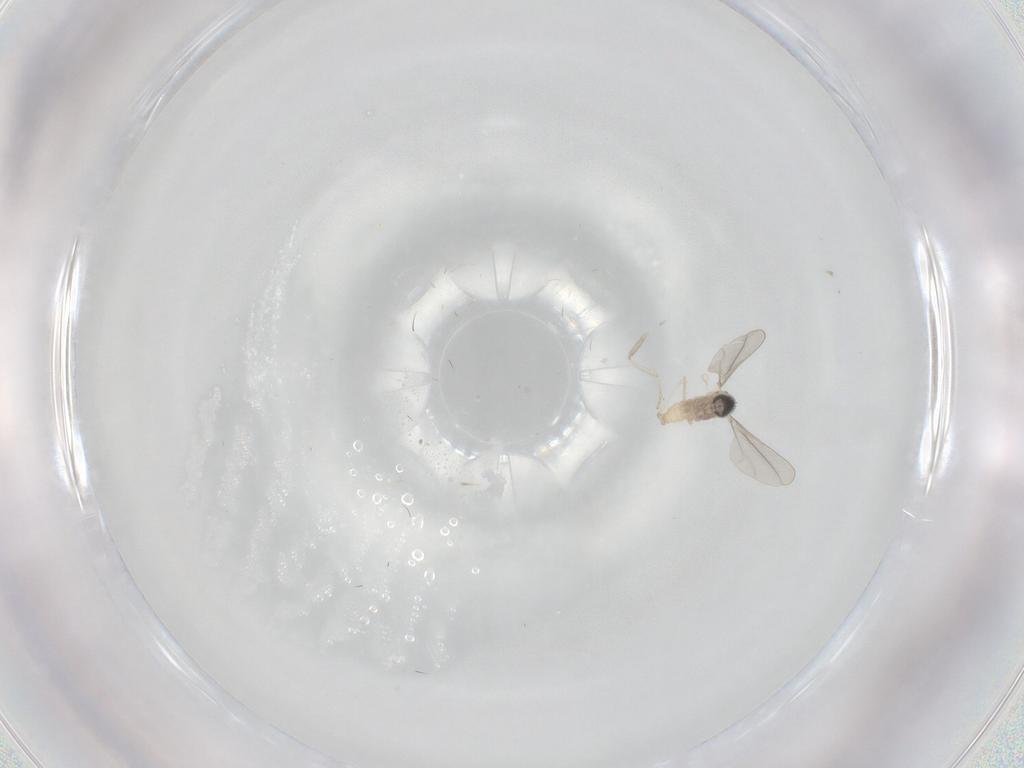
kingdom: Animalia
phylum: Arthropoda
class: Insecta
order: Diptera
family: Cecidomyiidae
